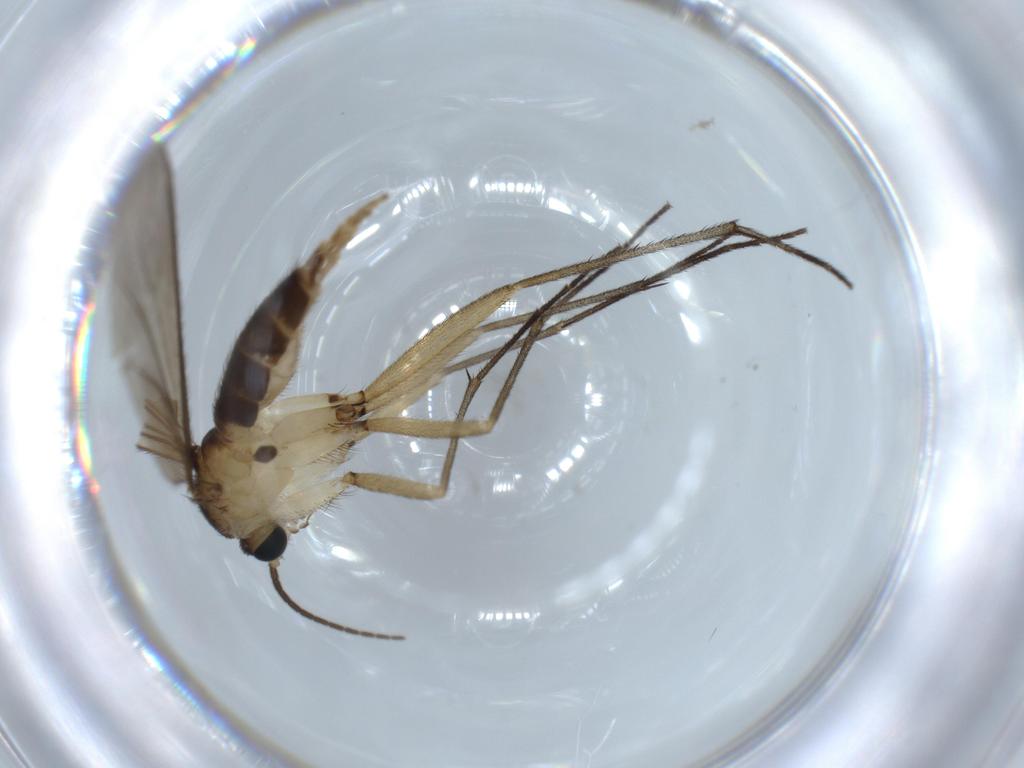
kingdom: Animalia
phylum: Arthropoda
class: Insecta
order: Diptera
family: Sciaridae
